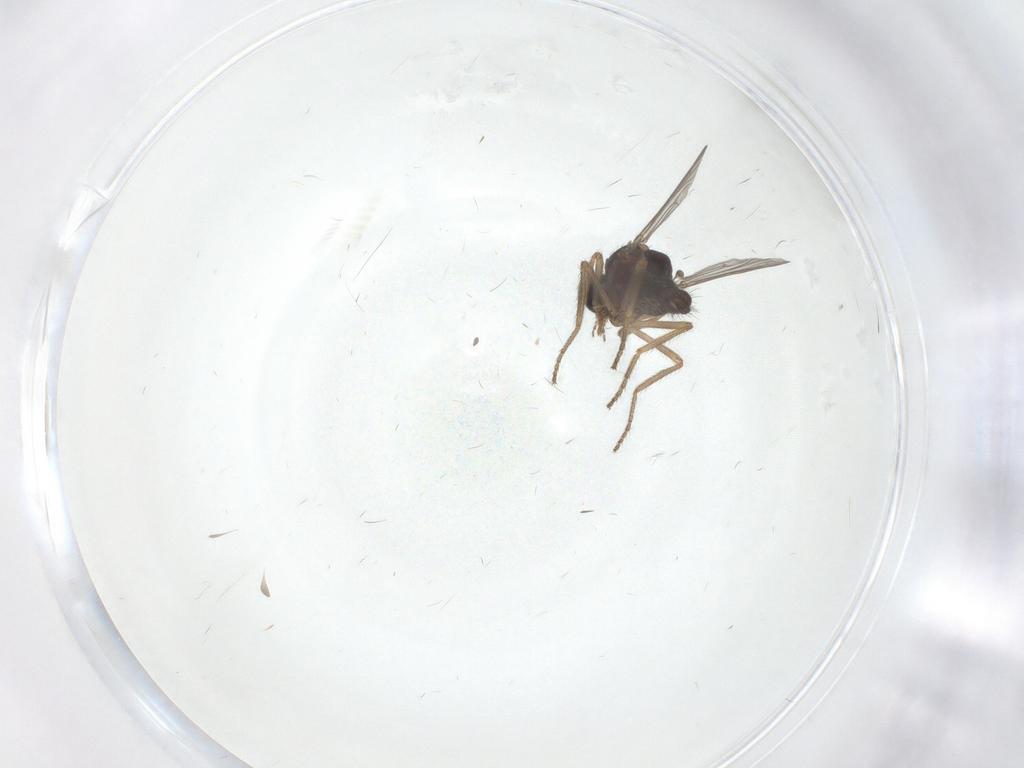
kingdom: Animalia
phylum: Arthropoda
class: Insecta
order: Diptera
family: Ceratopogonidae
